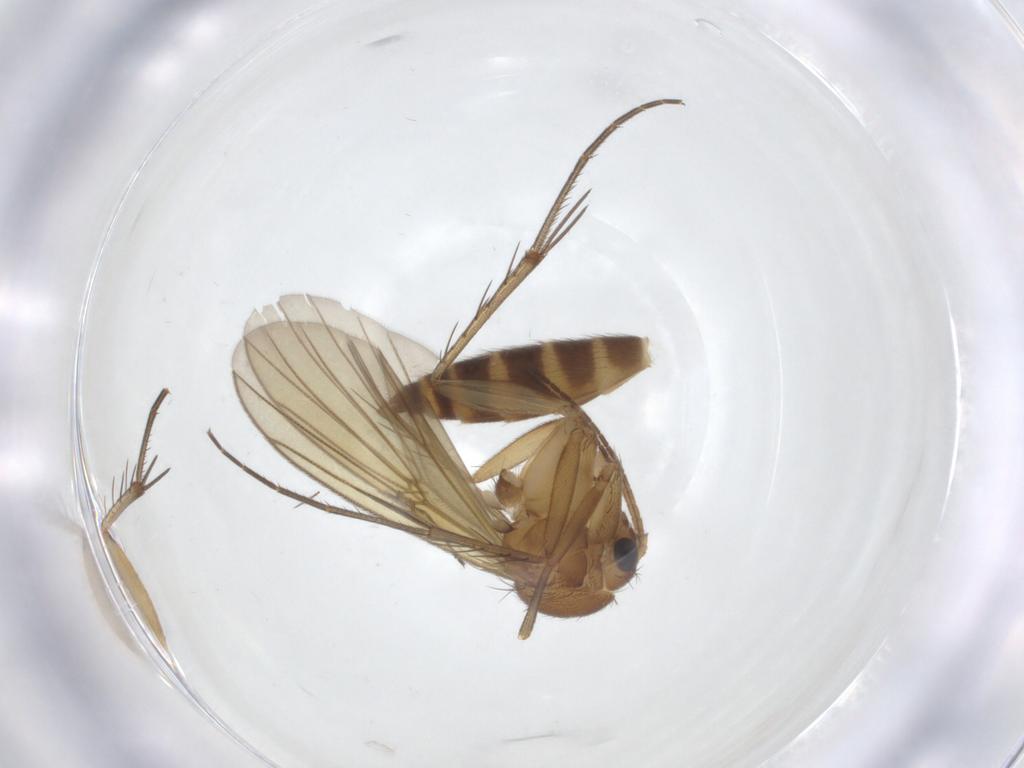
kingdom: Animalia
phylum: Arthropoda
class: Insecta
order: Diptera
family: Mycetophilidae
